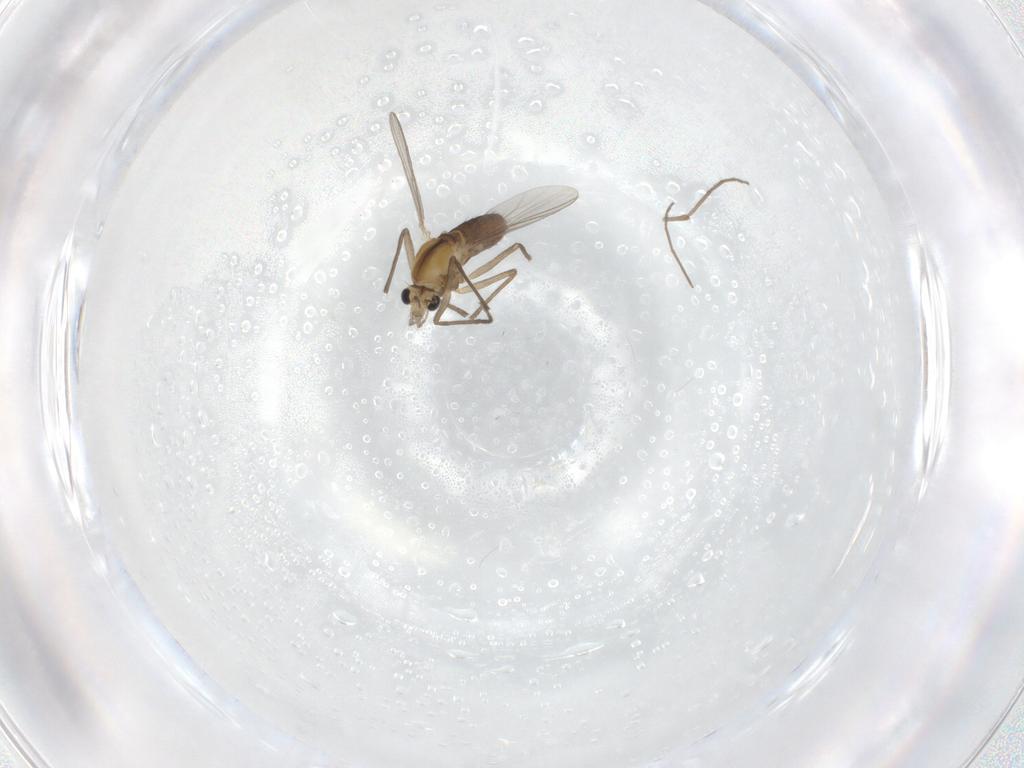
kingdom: Animalia
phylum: Arthropoda
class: Insecta
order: Diptera
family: Chironomidae
